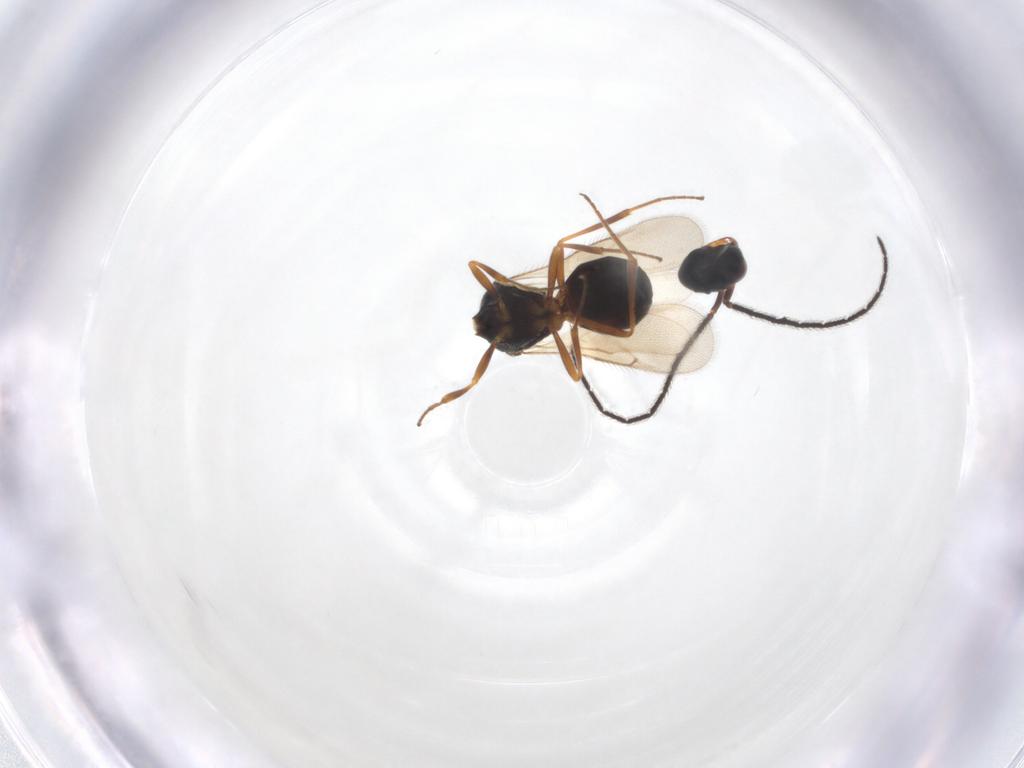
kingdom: Animalia
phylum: Arthropoda
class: Insecta
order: Hymenoptera
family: Scelionidae
